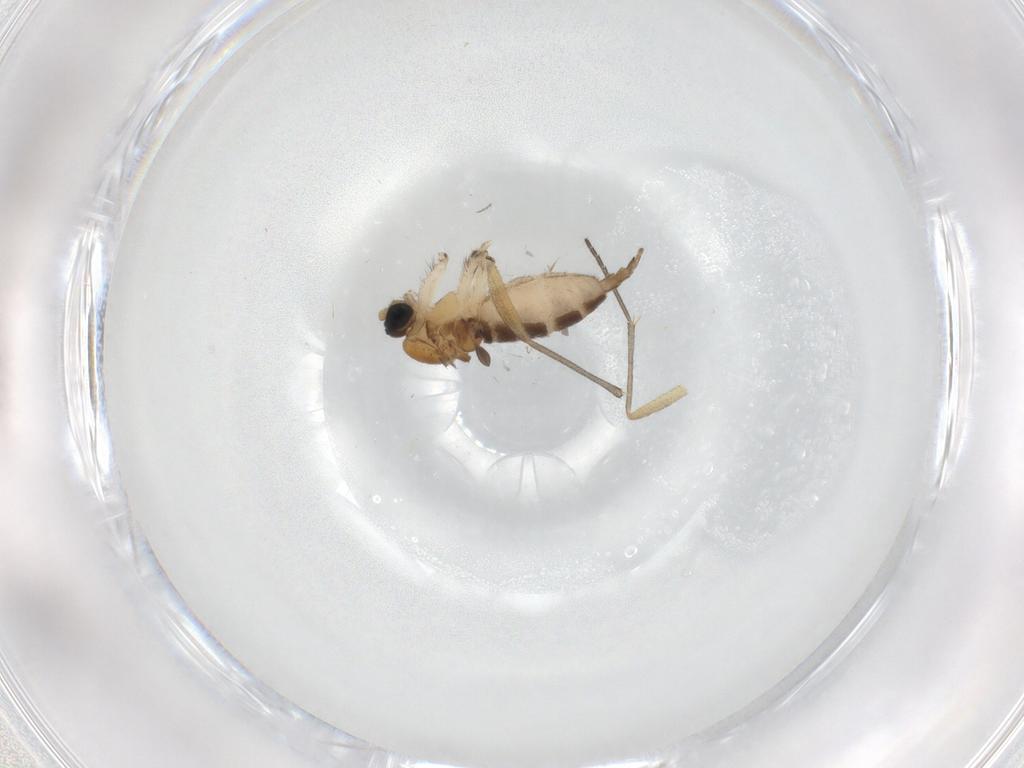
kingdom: Animalia
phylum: Arthropoda
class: Insecta
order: Diptera
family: Chironomidae
